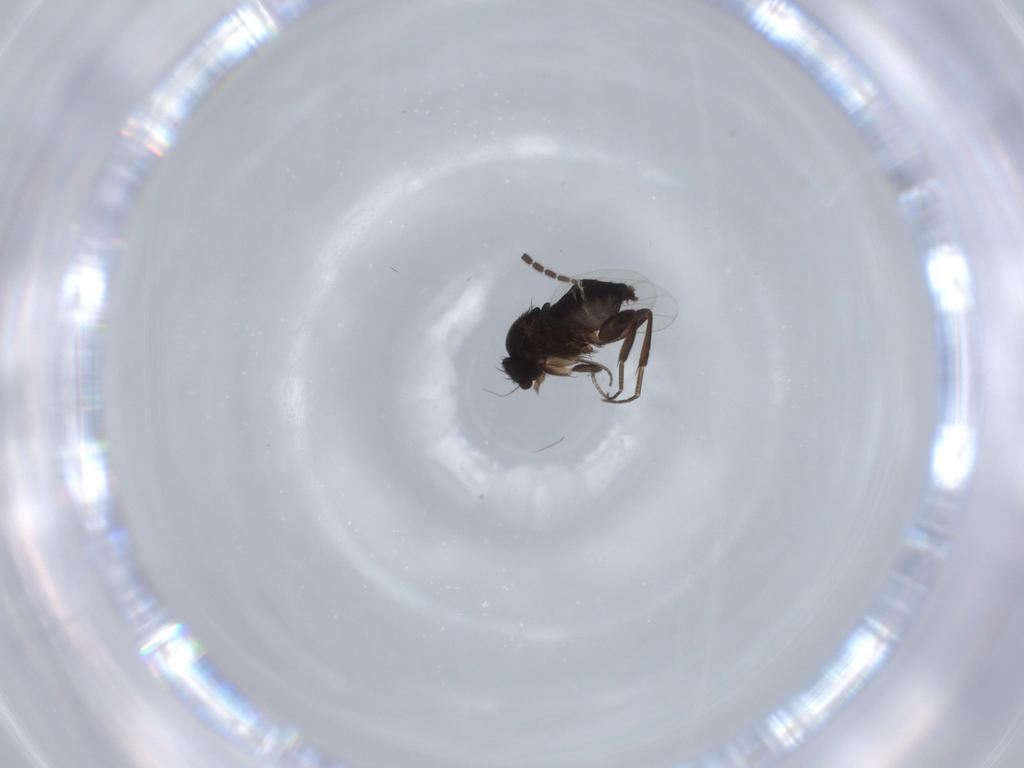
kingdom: Animalia
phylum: Arthropoda
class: Insecta
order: Diptera
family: Phoridae
